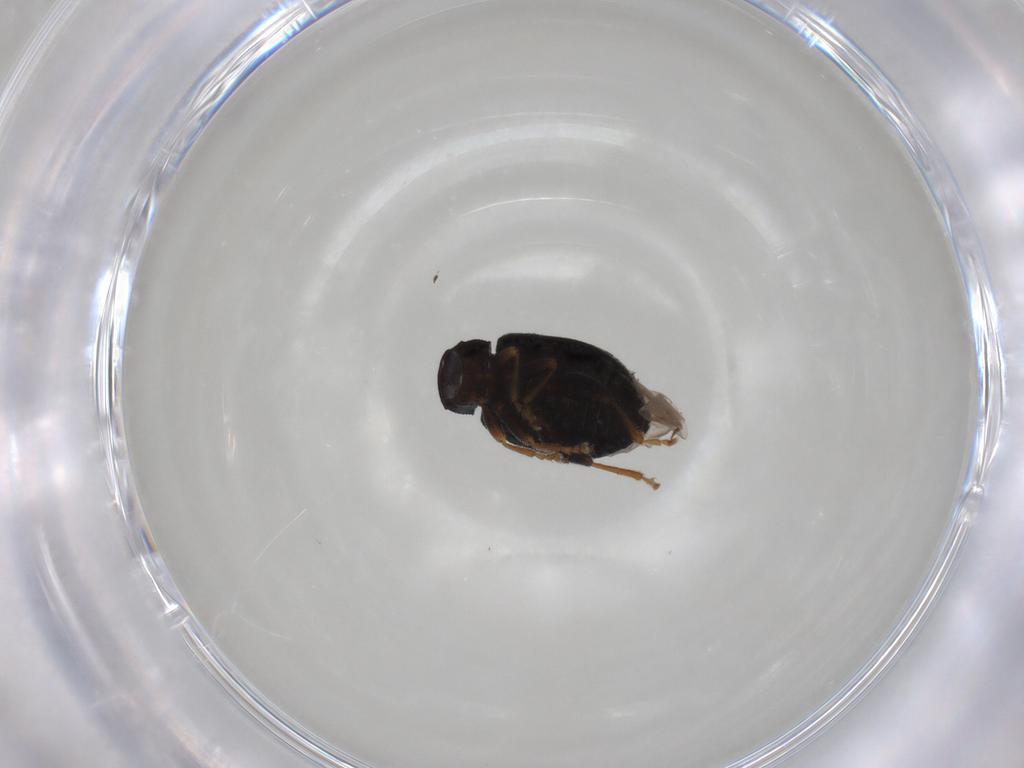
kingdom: Animalia
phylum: Arthropoda
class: Insecta
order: Coleoptera
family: Chrysomelidae
